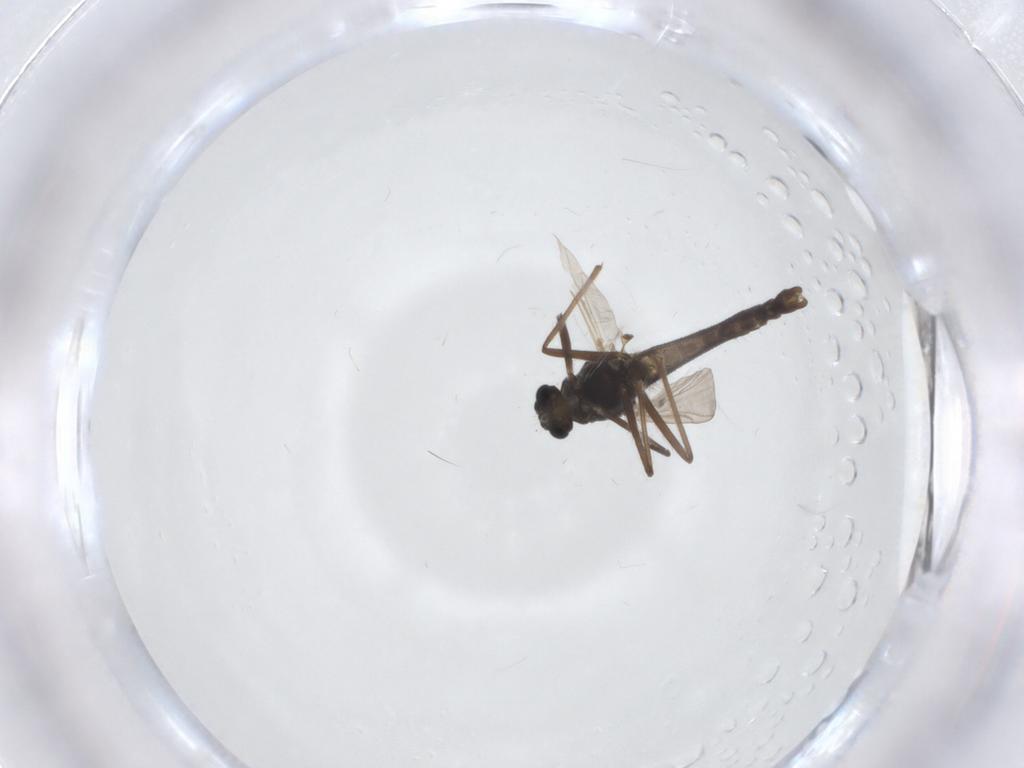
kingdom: Animalia
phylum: Arthropoda
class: Insecta
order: Diptera
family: Chironomidae
